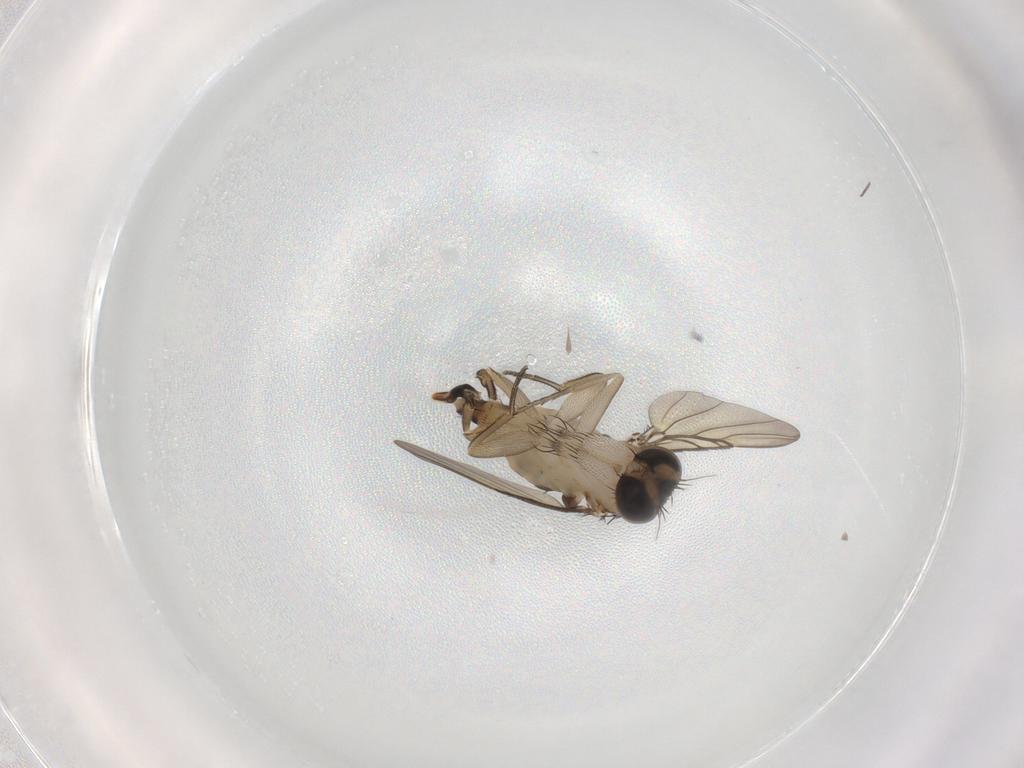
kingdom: Animalia
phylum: Arthropoda
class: Insecta
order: Diptera
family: Phoridae
